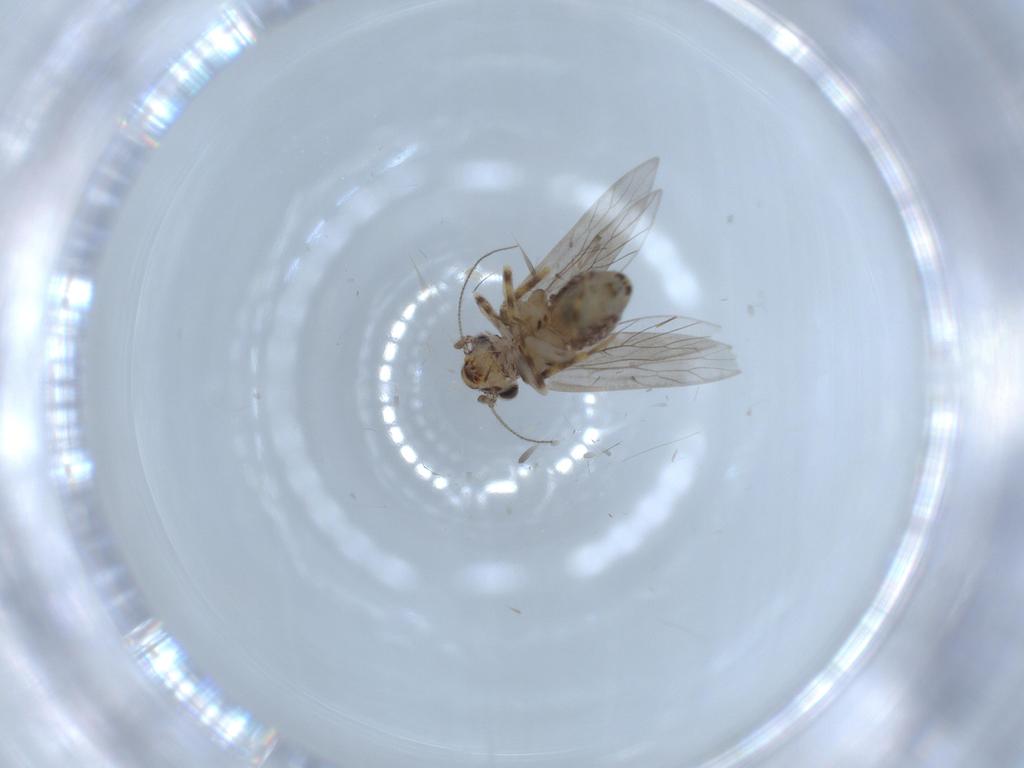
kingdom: Animalia
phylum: Arthropoda
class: Insecta
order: Psocodea
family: Lepidopsocidae
